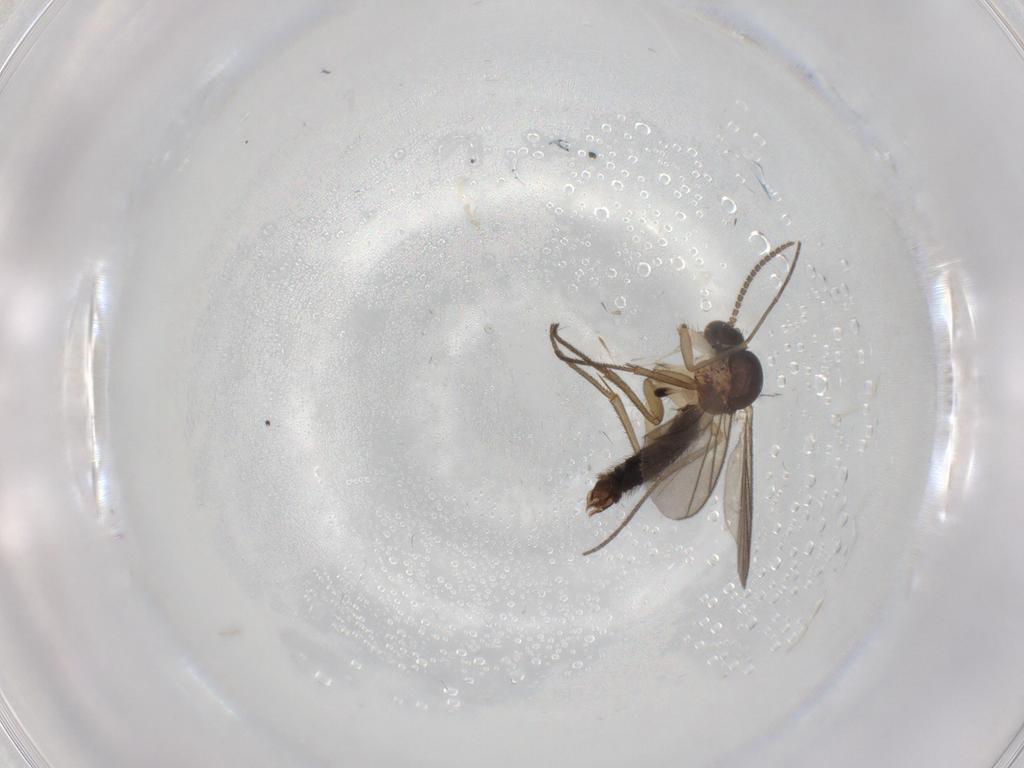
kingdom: Animalia
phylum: Arthropoda
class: Insecta
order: Diptera
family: Mycetophilidae
